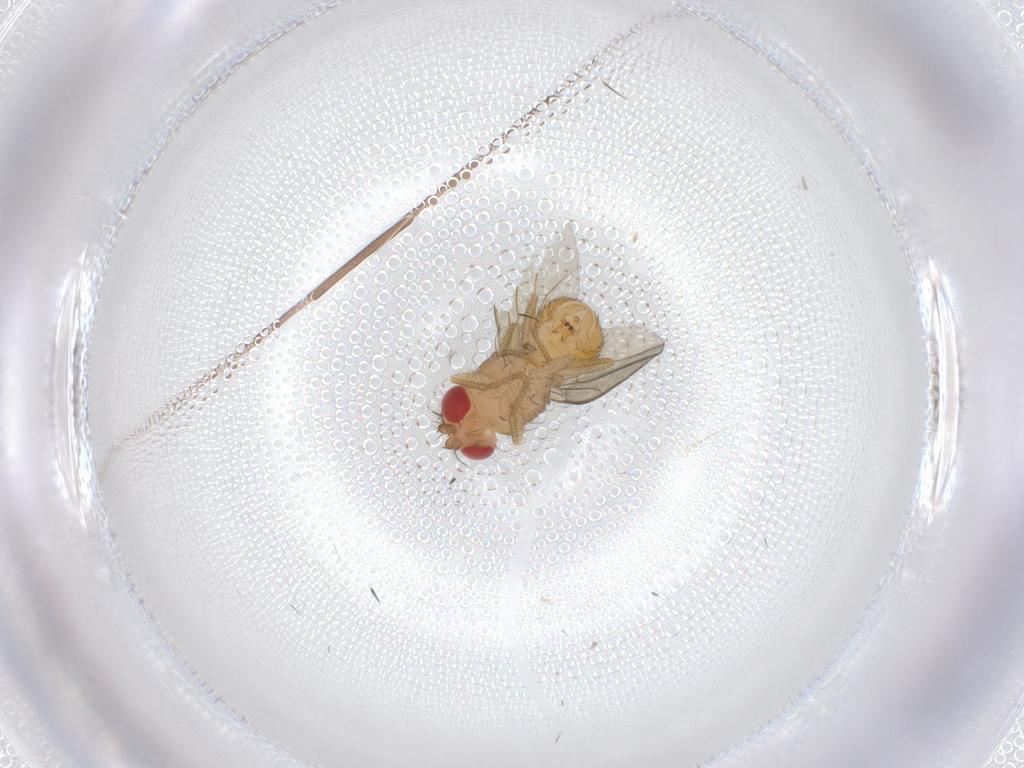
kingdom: Animalia
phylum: Arthropoda
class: Insecta
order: Diptera
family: Drosophilidae
